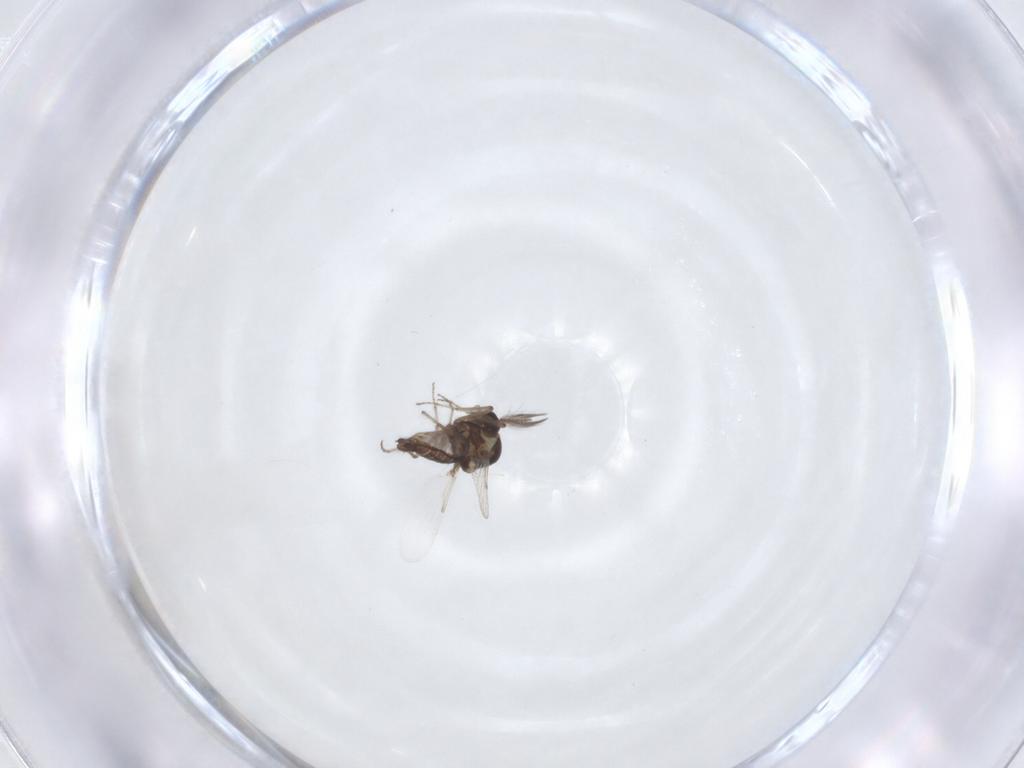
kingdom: Animalia
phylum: Arthropoda
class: Insecta
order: Diptera
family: Ceratopogonidae
